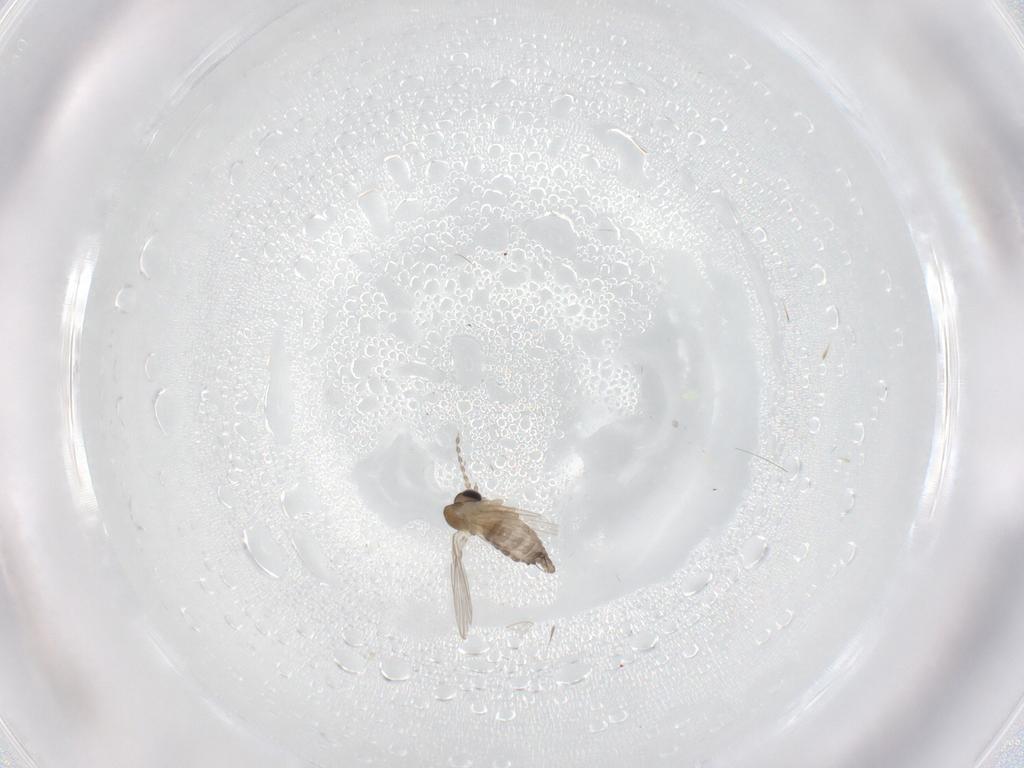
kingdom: Animalia
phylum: Arthropoda
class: Insecta
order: Diptera
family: Psychodidae
